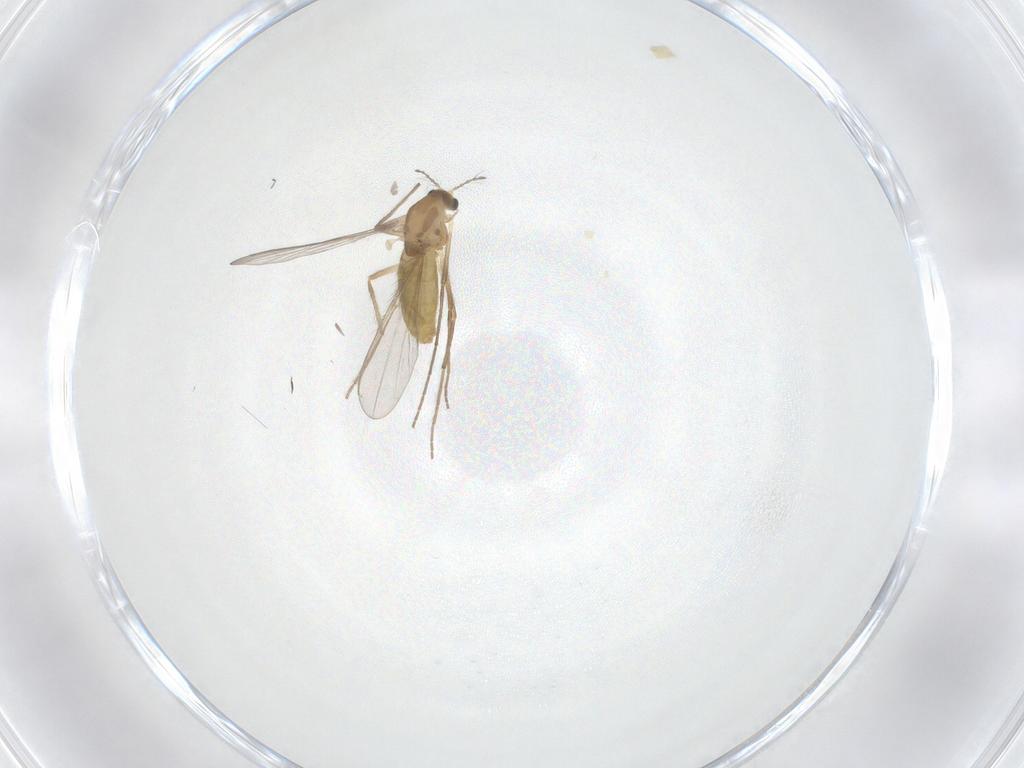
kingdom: Animalia
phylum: Arthropoda
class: Insecta
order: Diptera
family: Chironomidae
